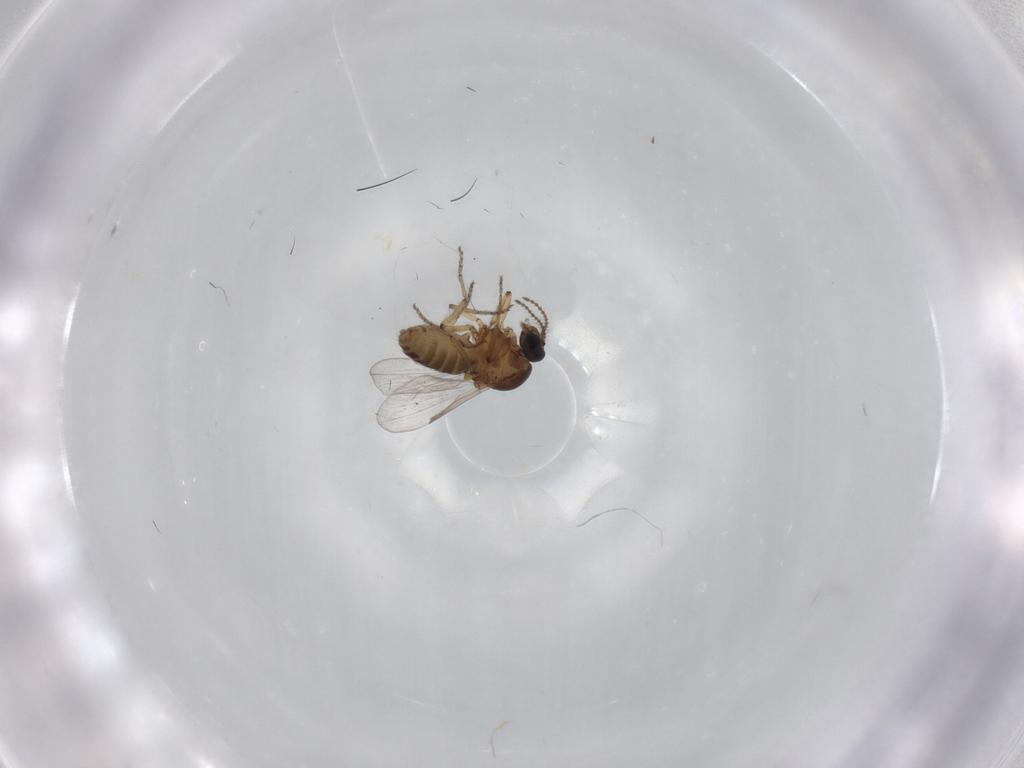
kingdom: Animalia
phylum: Arthropoda
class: Insecta
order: Diptera
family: Ceratopogonidae
